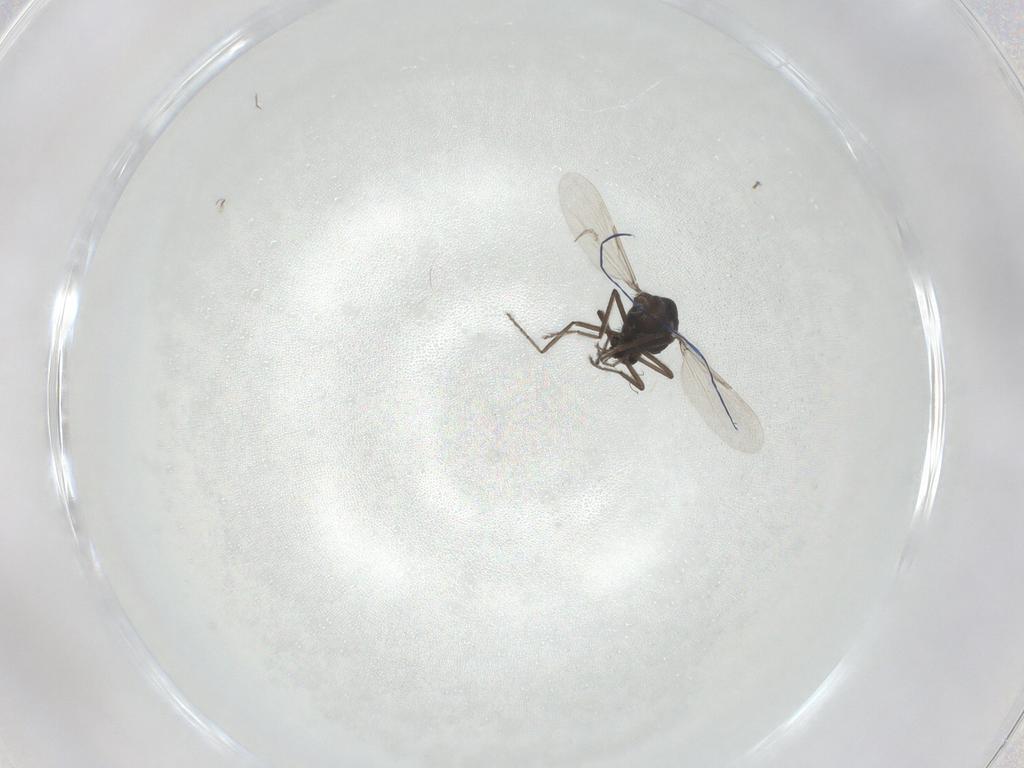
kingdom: Animalia
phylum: Arthropoda
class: Insecta
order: Diptera
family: Ceratopogonidae
